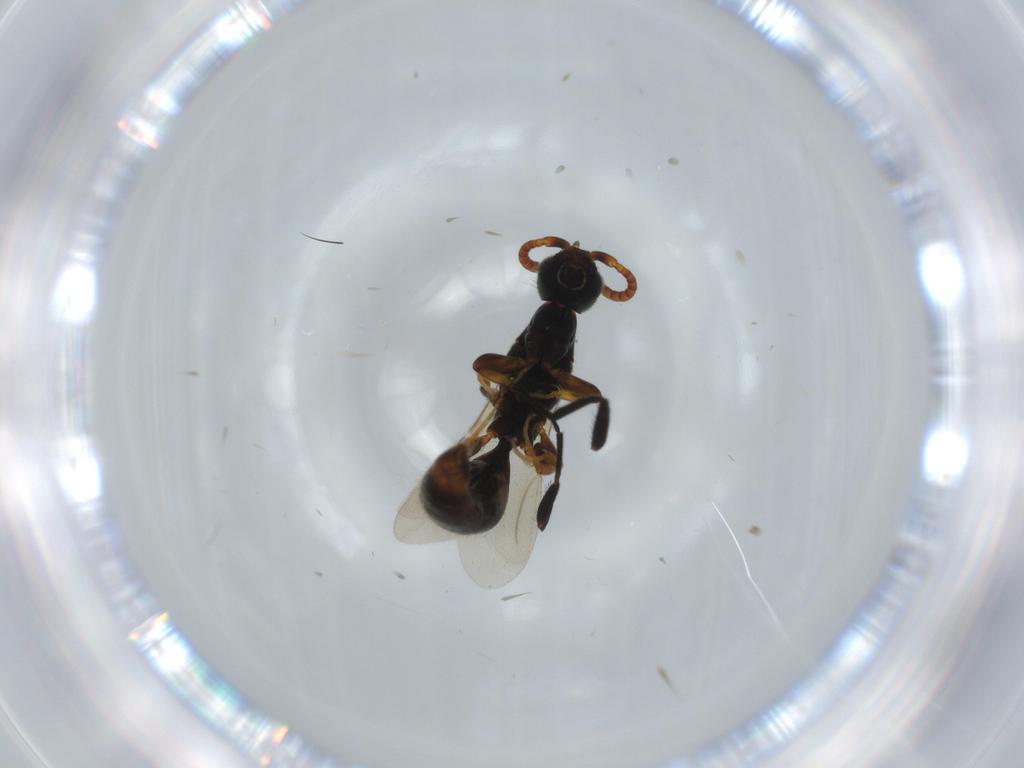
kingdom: Animalia
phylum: Arthropoda
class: Insecta
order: Hymenoptera
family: Bethylidae
